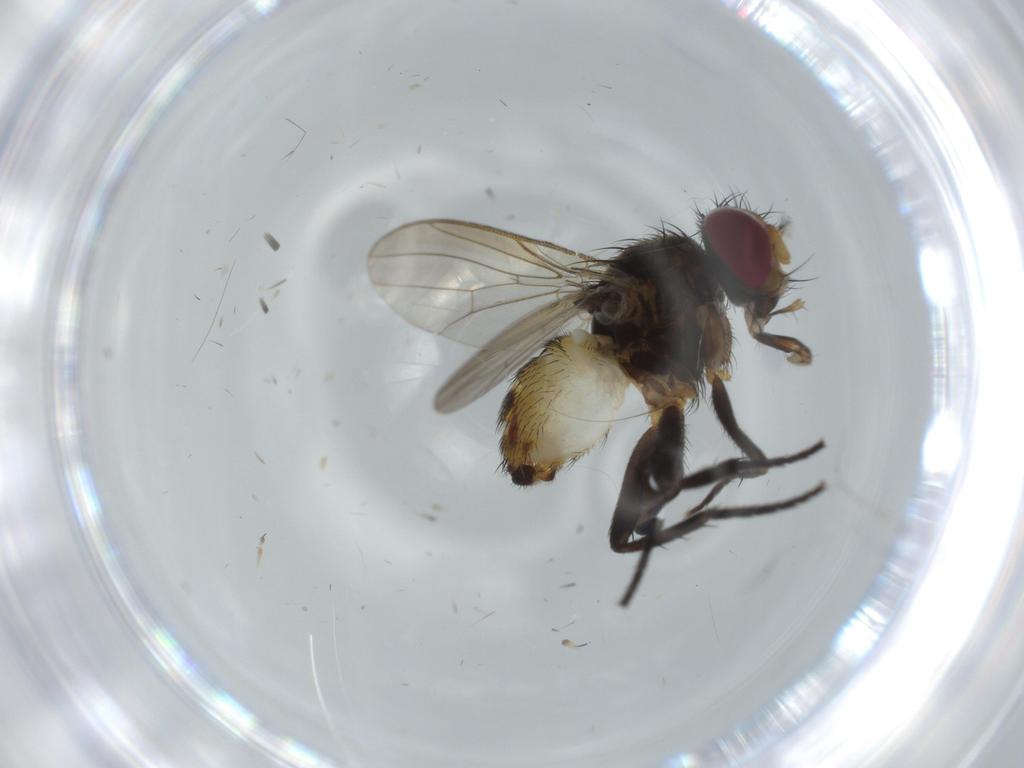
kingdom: Animalia
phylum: Arthropoda
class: Insecta
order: Diptera
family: Anthomyiidae
